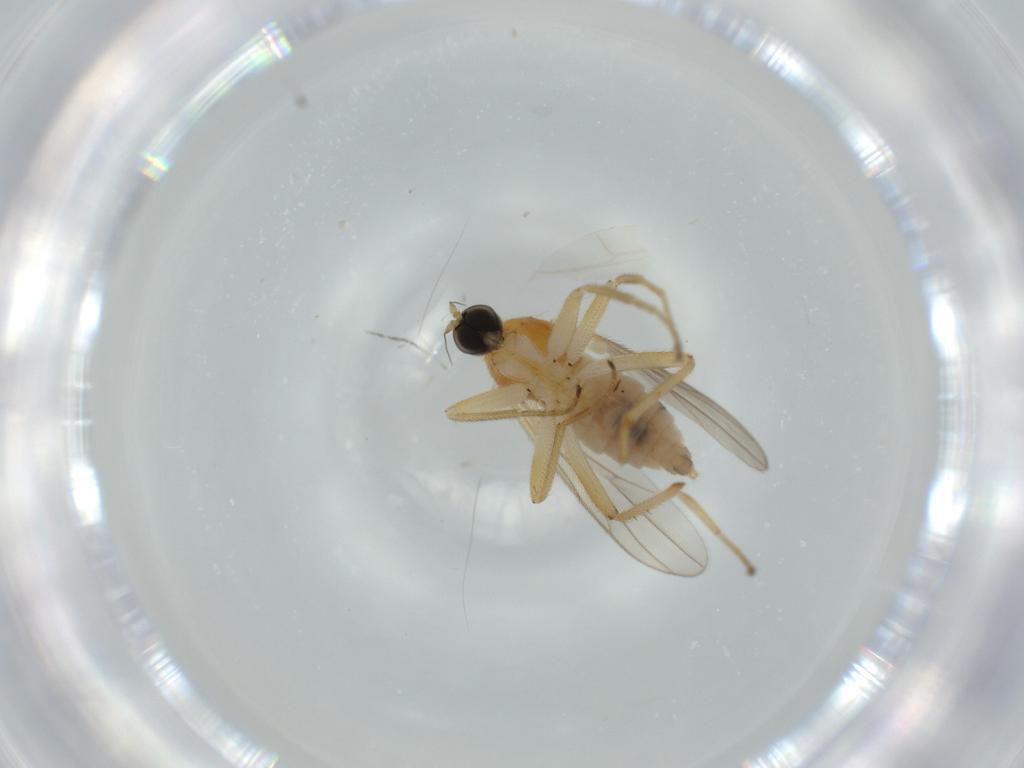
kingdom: Animalia
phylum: Arthropoda
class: Insecta
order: Diptera
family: Hybotidae
